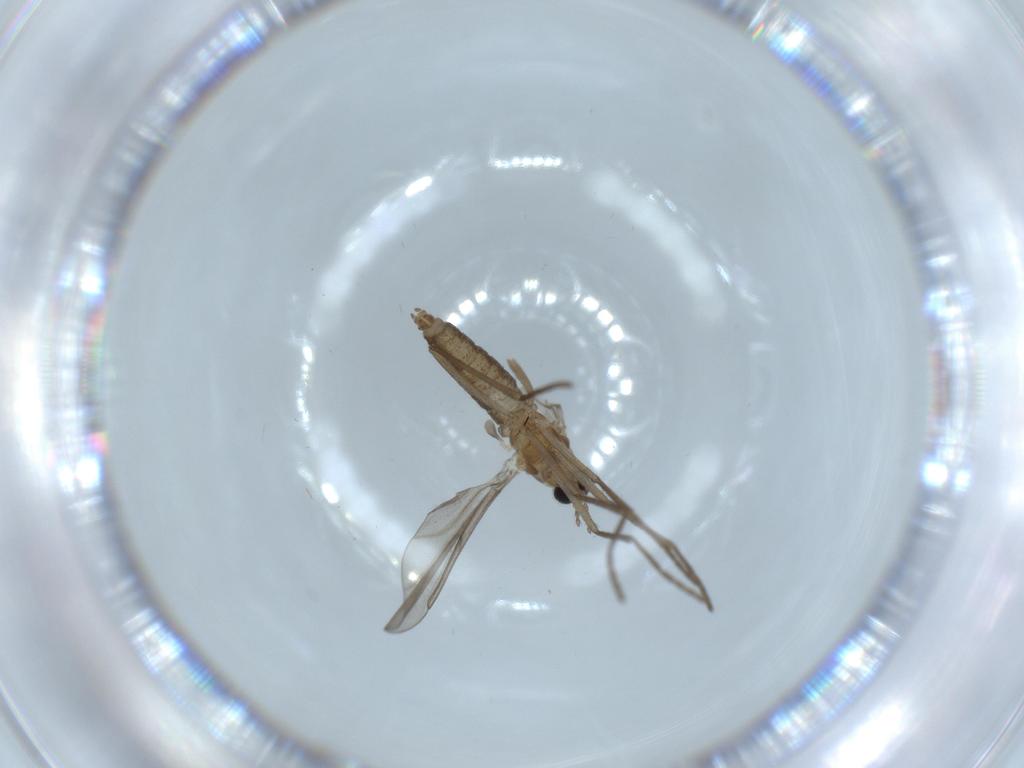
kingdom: Animalia
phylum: Arthropoda
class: Insecta
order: Diptera
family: Cecidomyiidae
